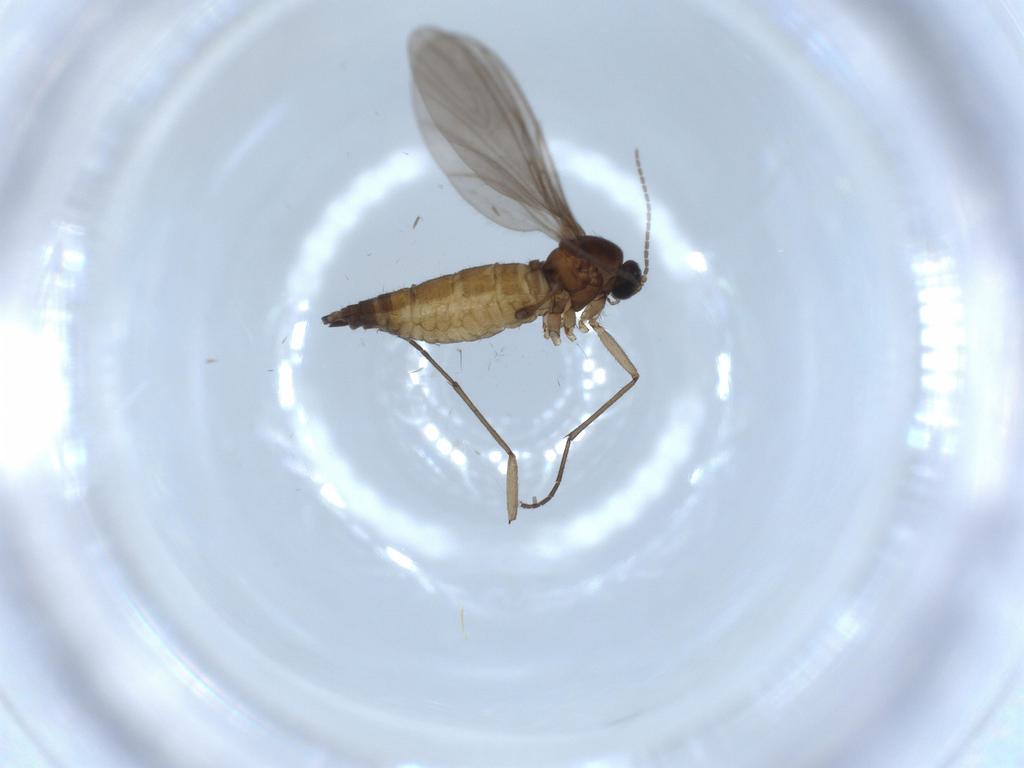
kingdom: Animalia
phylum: Arthropoda
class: Insecta
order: Diptera
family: Sciaridae
